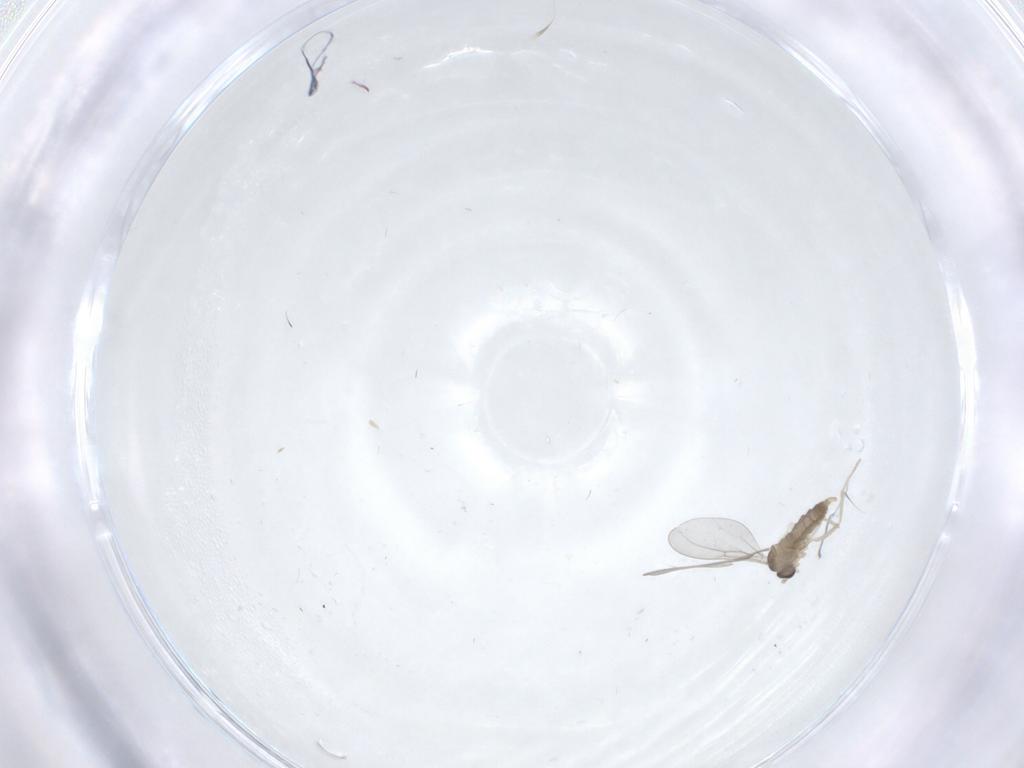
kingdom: Animalia
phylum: Arthropoda
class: Insecta
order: Diptera
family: Cecidomyiidae
